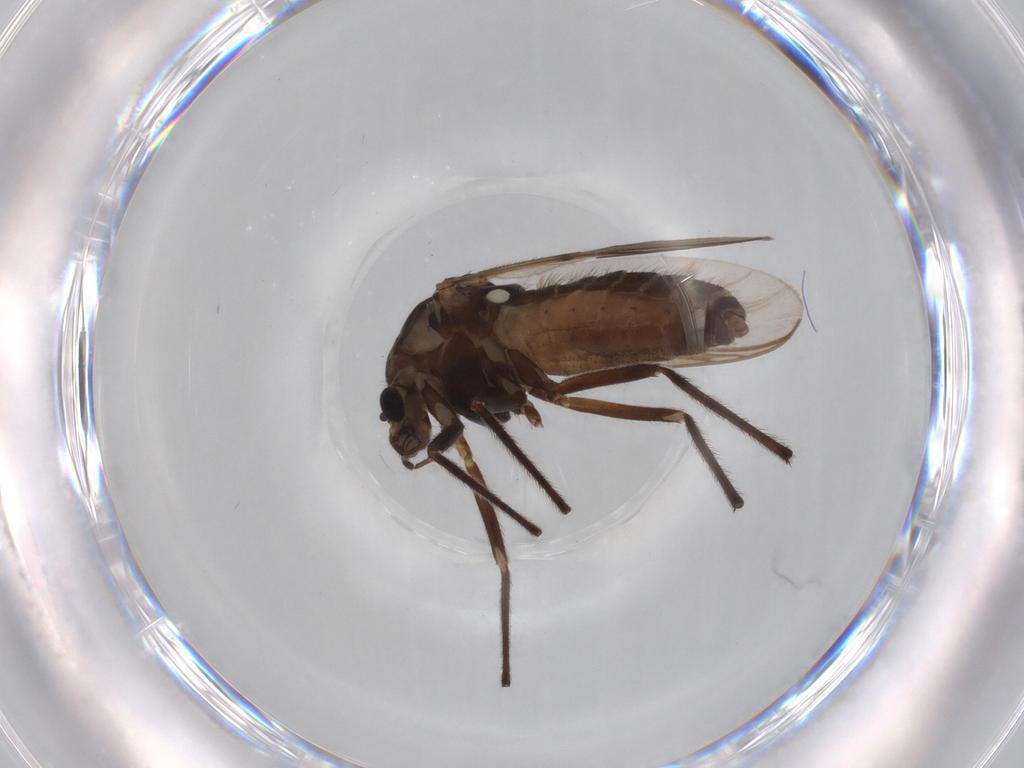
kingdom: Animalia
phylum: Arthropoda
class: Insecta
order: Diptera
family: Chironomidae
